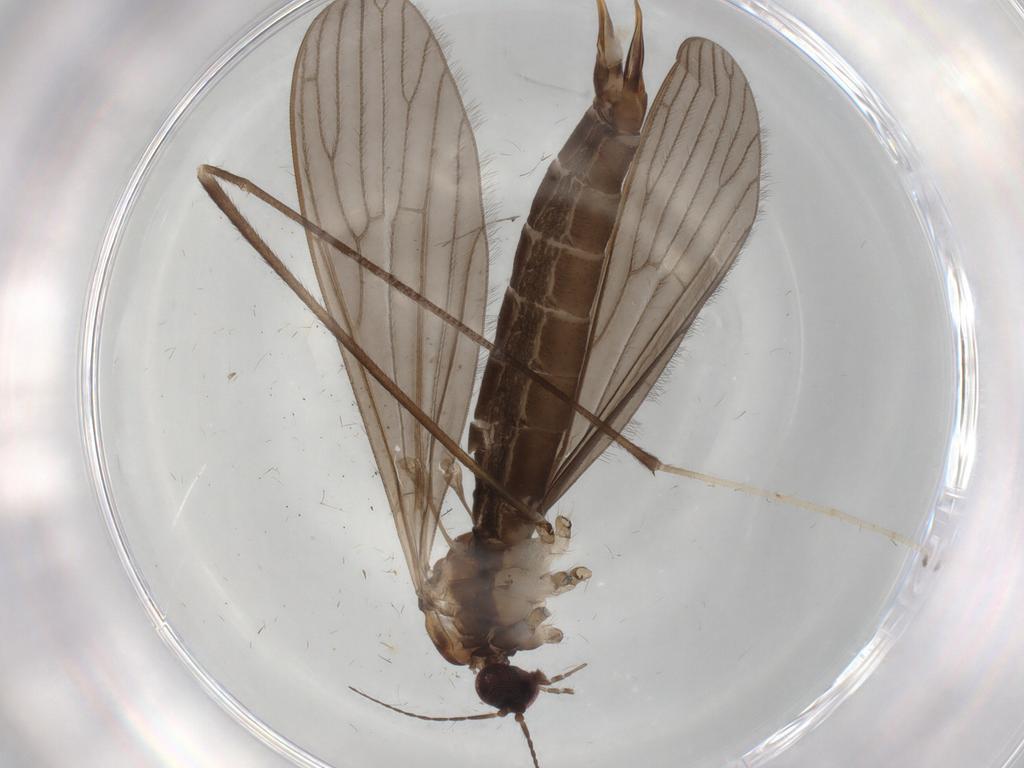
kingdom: Animalia
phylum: Arthropoda
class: Insecta
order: Diptera
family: Limoniidae
